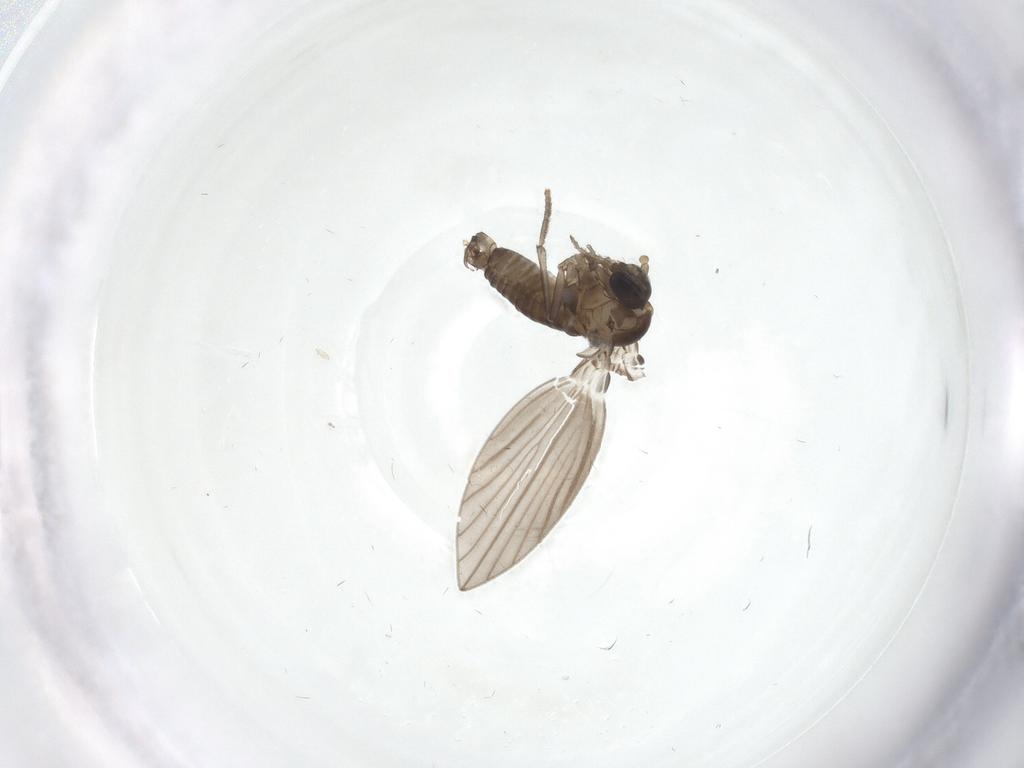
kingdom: Animalia
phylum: Arthropoda
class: Insecta
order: Diptera
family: Psychodidae
